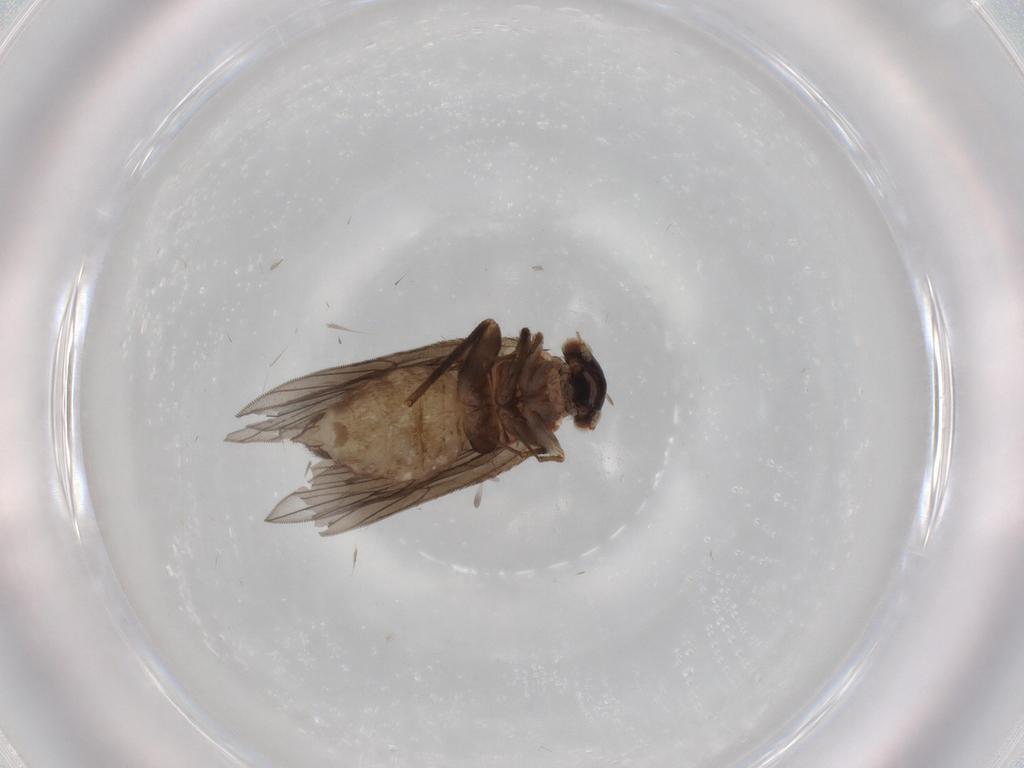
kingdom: Animalia
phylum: Arthropoda
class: Insecta
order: Psocodea
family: Lepidopsocidae
